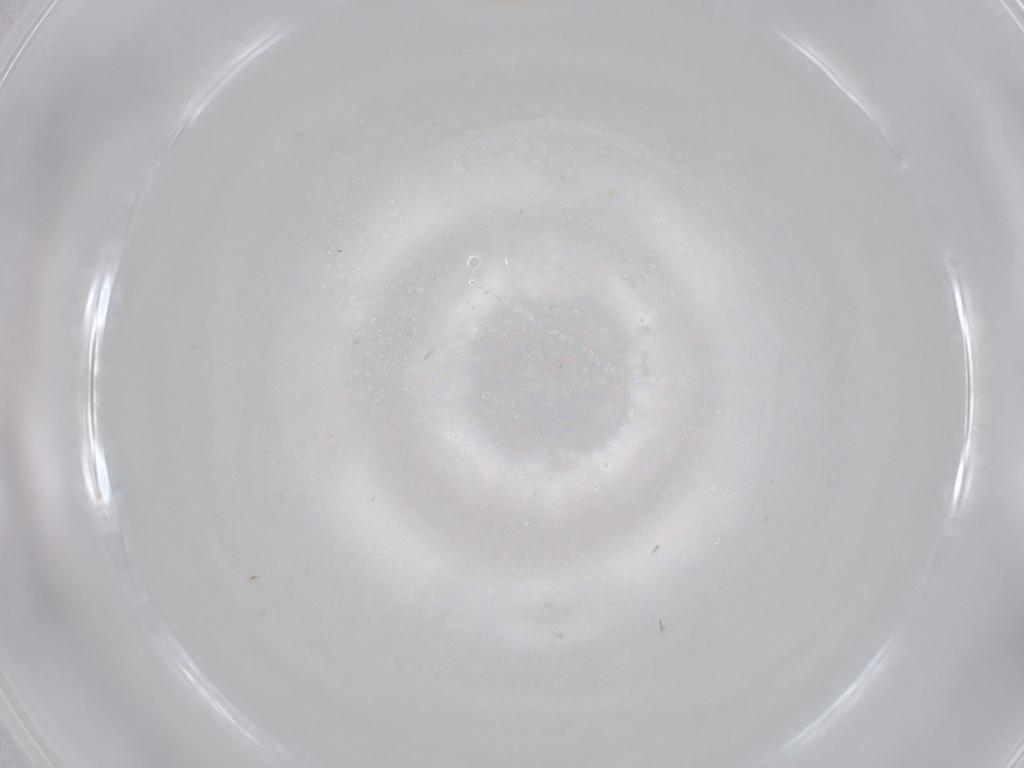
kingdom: Animalia
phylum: Arthropoda
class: Insecta
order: Hemiptera
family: Aleyrodidae
